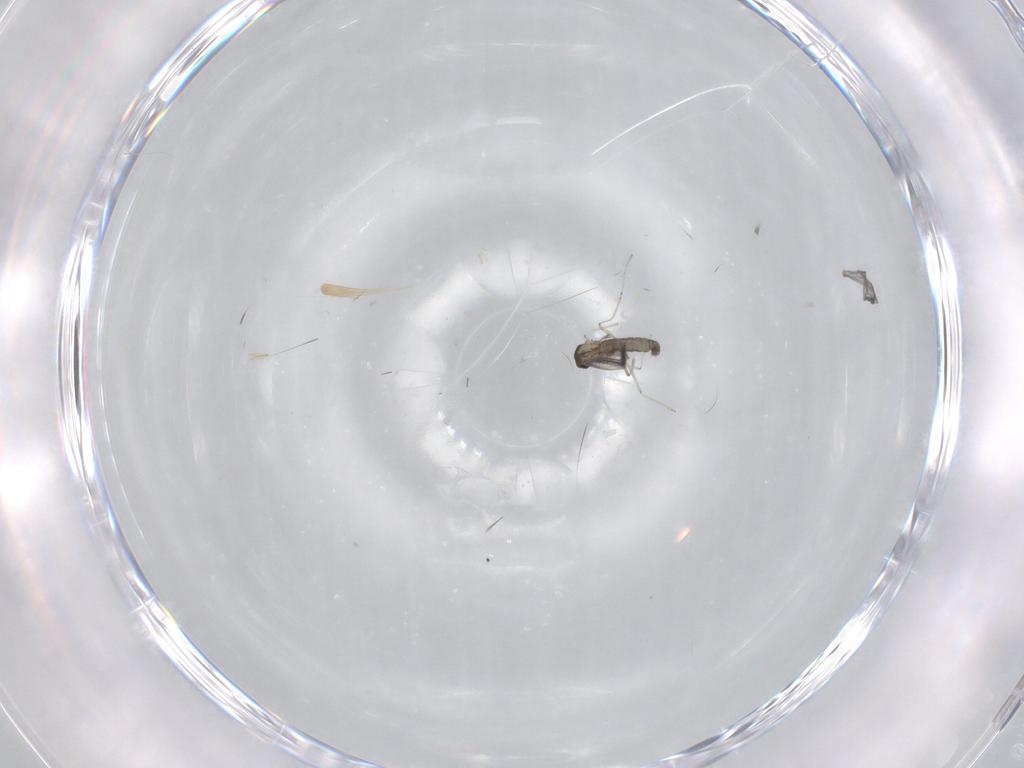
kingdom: Animalia
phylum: Arthropoda
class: Insecta
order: Diptera
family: Cecidomyiidae
